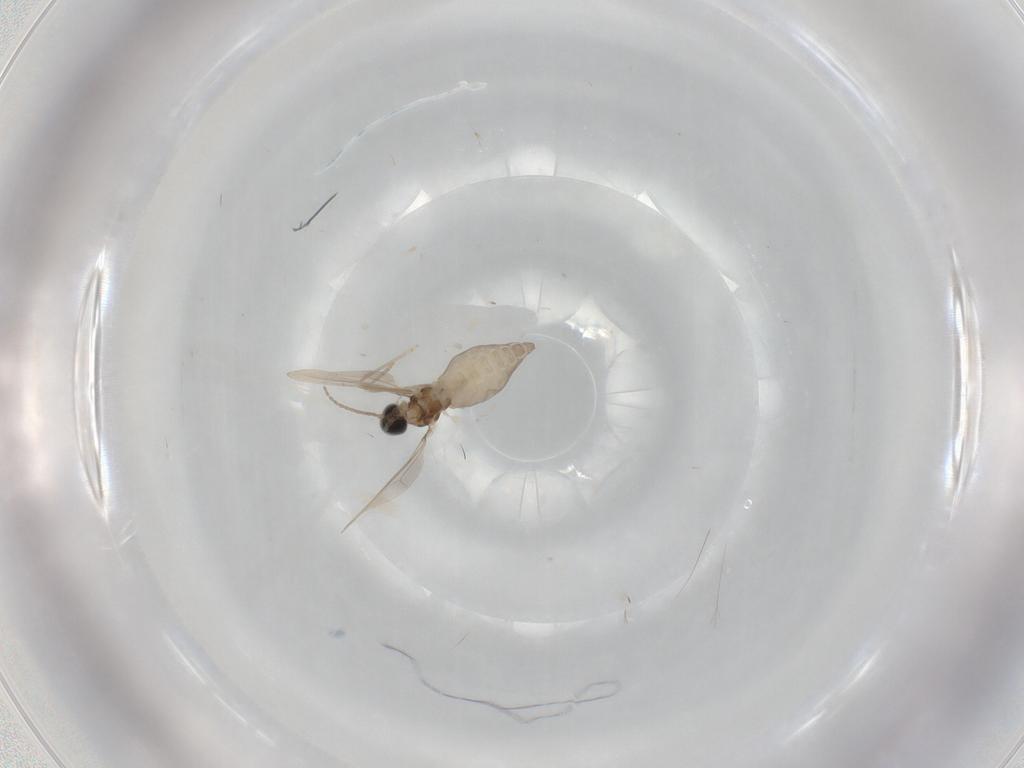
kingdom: Animalia
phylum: Arthropoda
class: Insecta
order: Diptera
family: Cecidomyiidae
